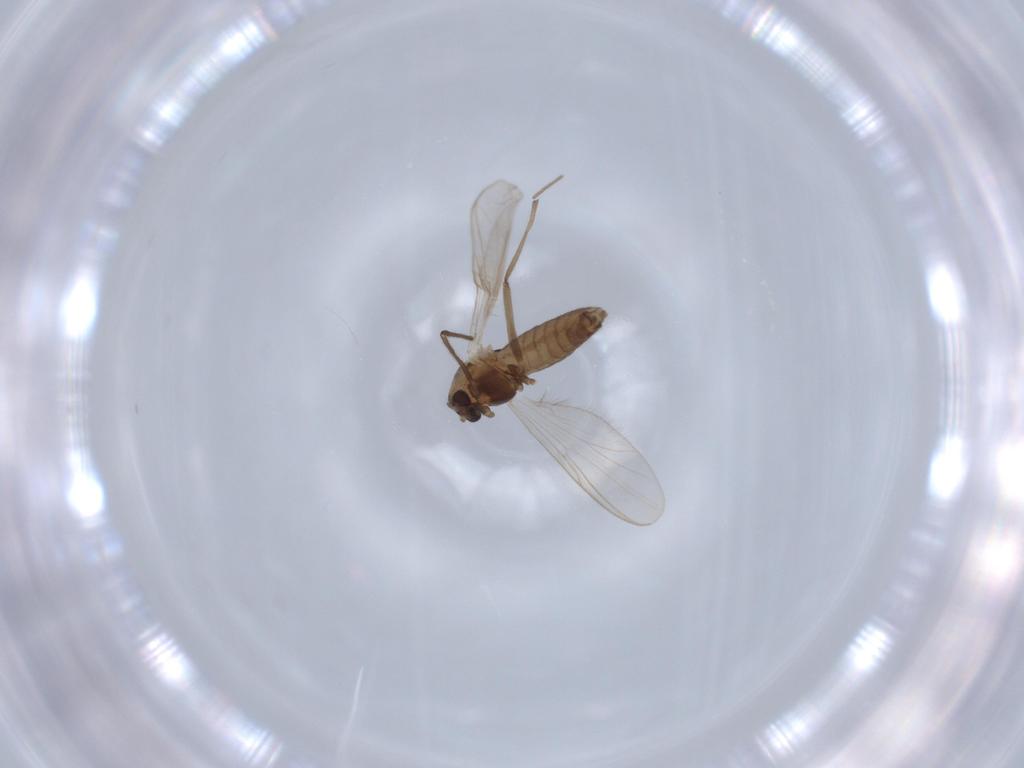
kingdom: Animalia
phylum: Arthropoda
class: Insecta
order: Diptera
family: Chironomidae
